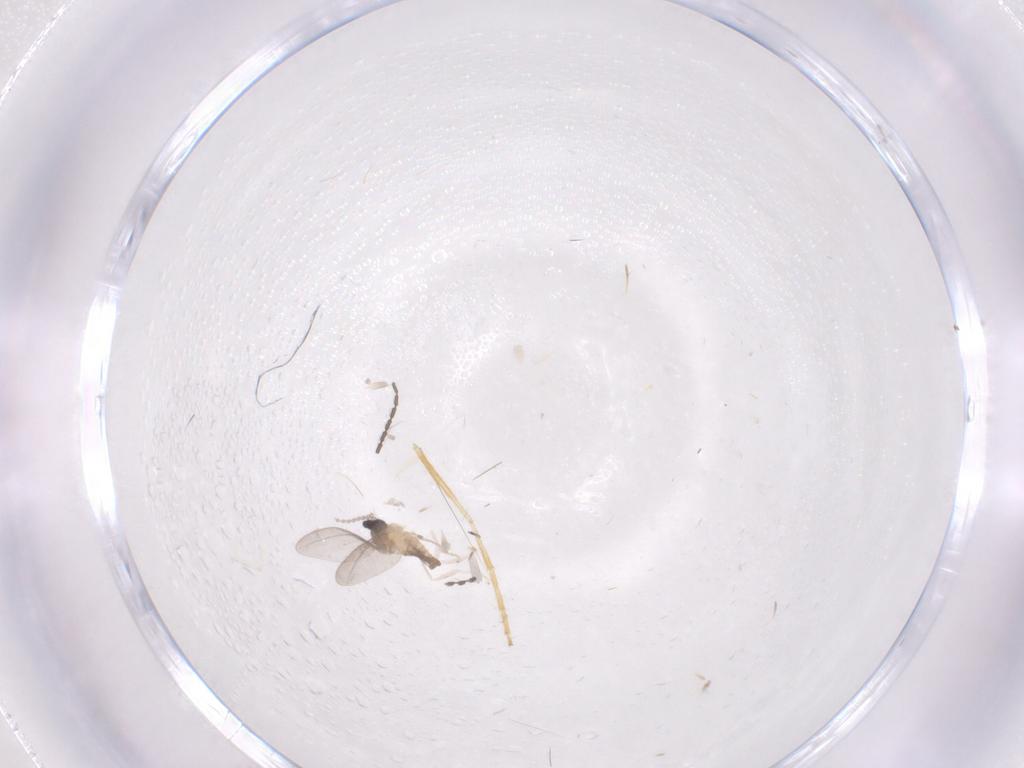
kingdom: Animalia
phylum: Arthropoda
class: Insecta
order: Diptera
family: Cecidomyiidae
